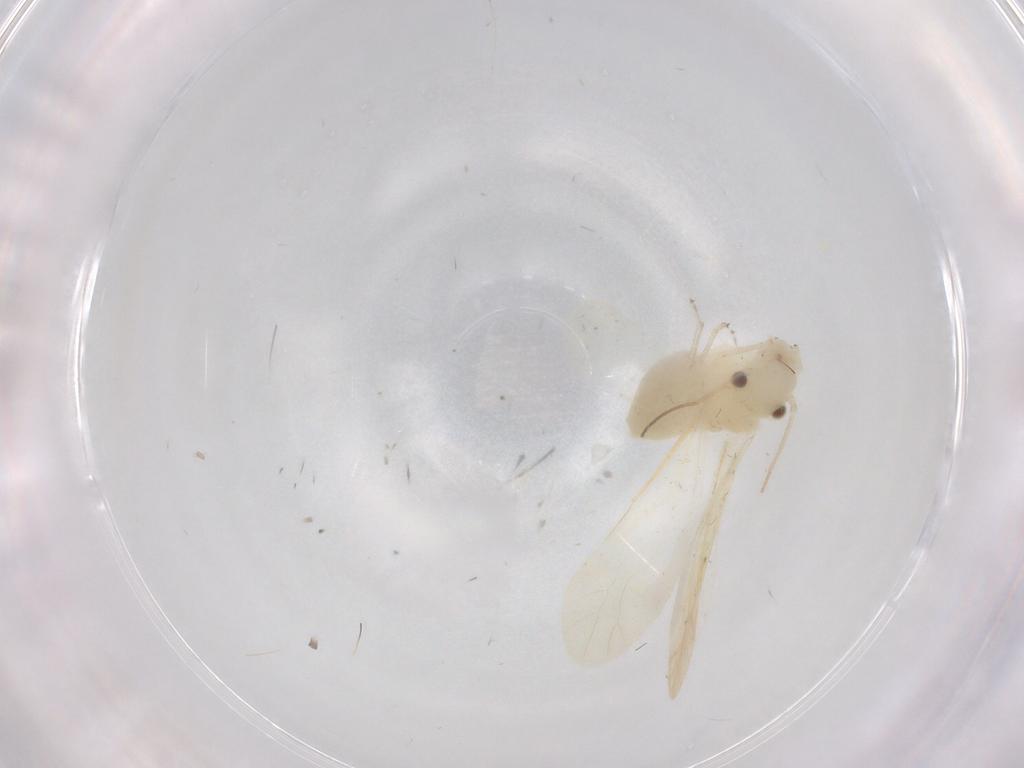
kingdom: Animalia
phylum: Arthropoda
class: Insecta
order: Psocodea
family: Caeciliusidae
